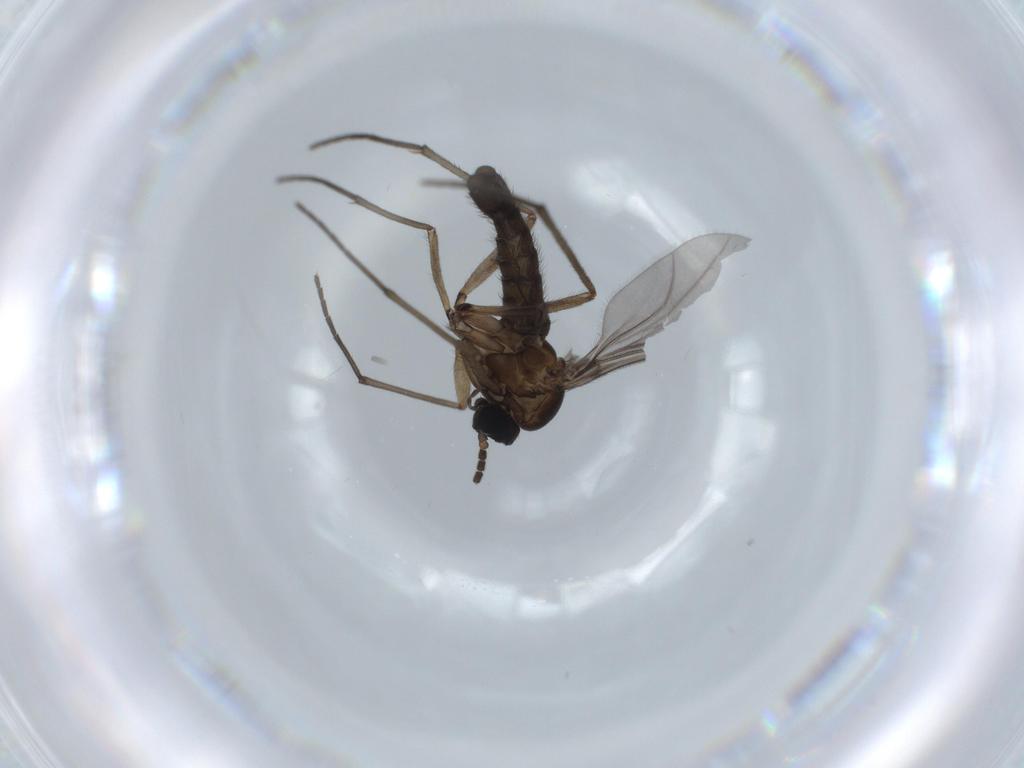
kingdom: Animalia
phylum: Arthropoda
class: Insecta
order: Diptera
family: Sciaridae
